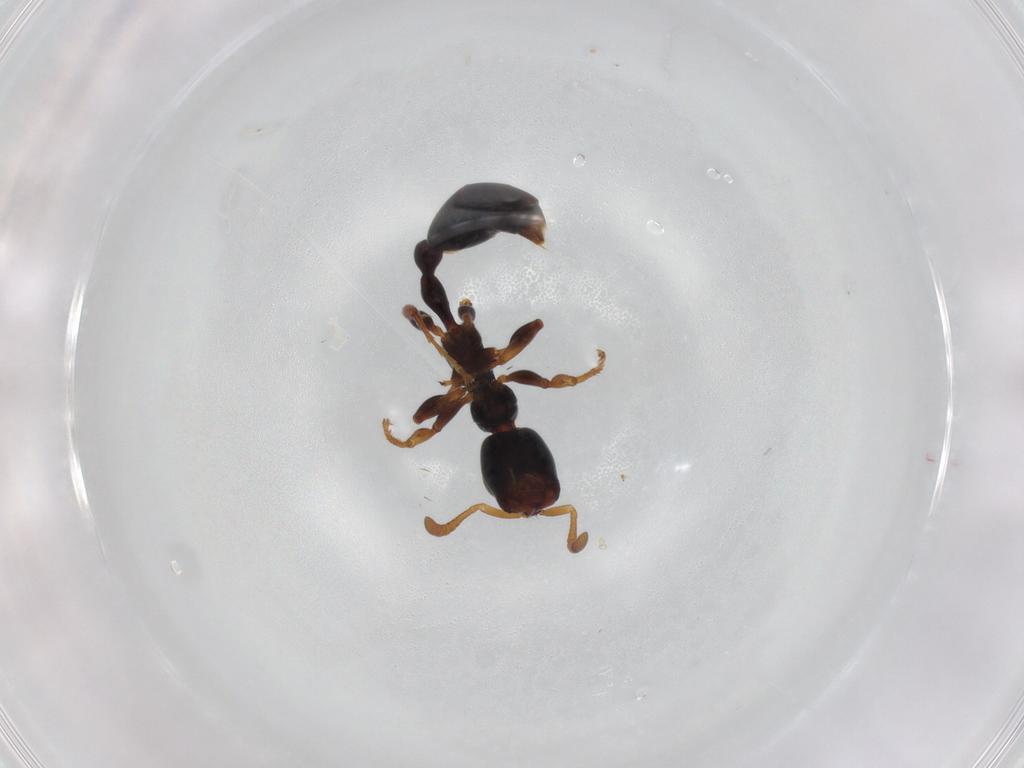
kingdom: Animalia
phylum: Arthropoda
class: Insecta
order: Hymenoptera
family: Formicidae
